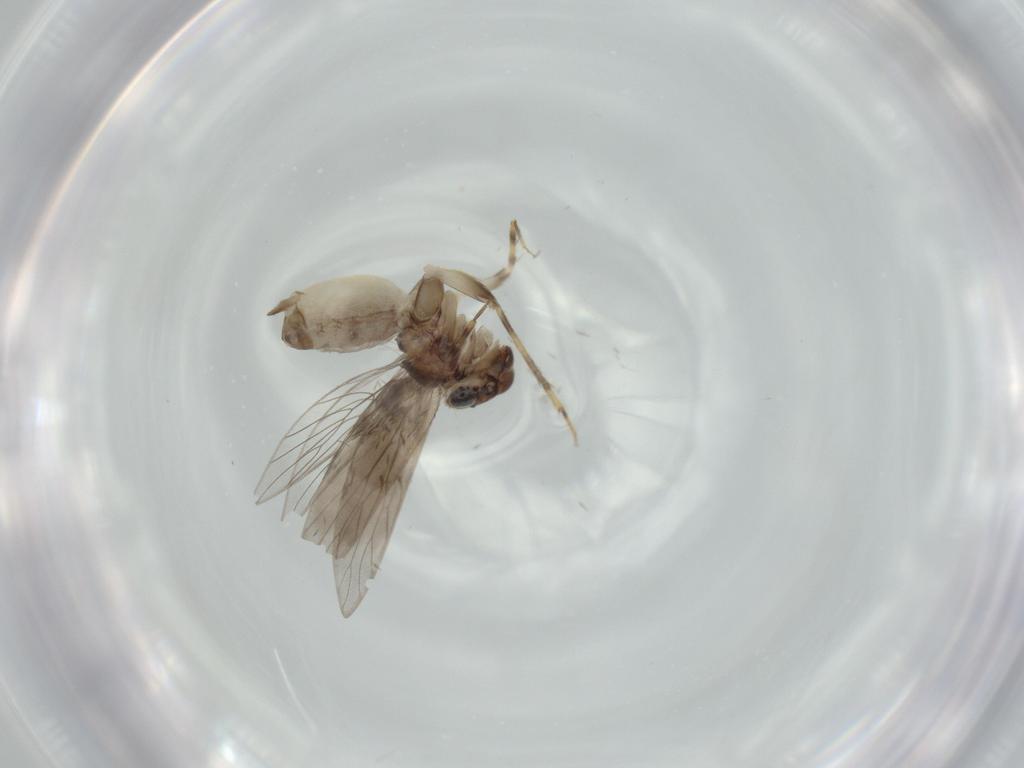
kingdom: Animalia
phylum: Arthropoda
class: Insecta
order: Psocodea
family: Lepidopsocidae
